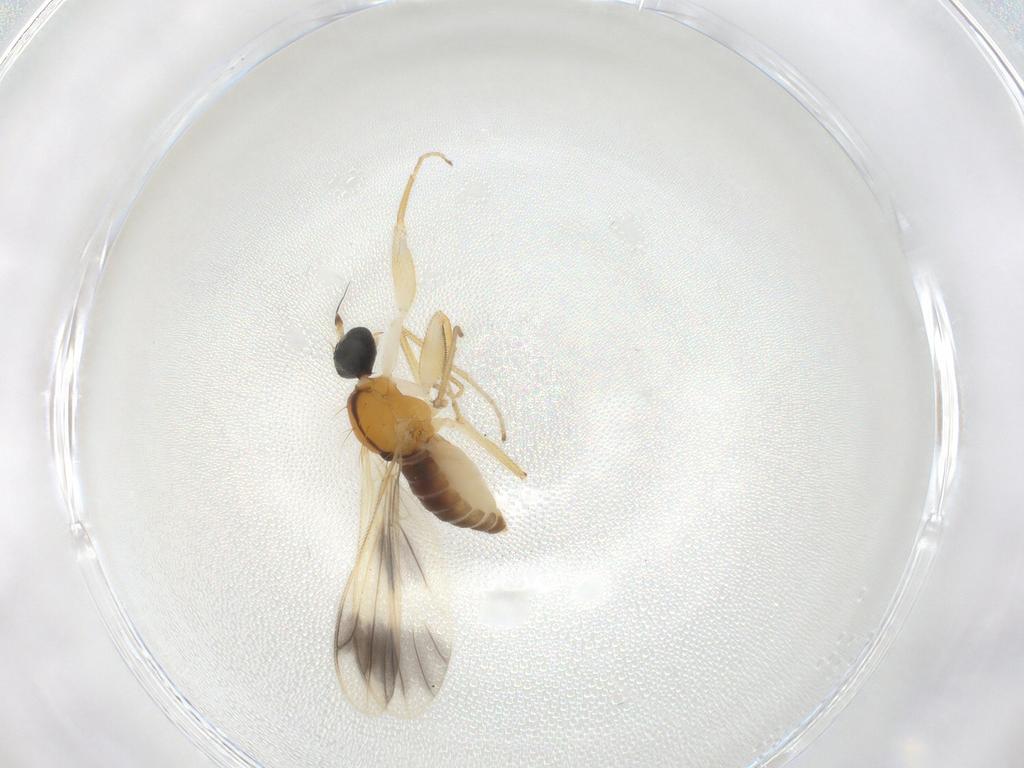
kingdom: Animalia
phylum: Arthropoda
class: Insecta
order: Diptera
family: Empididae
